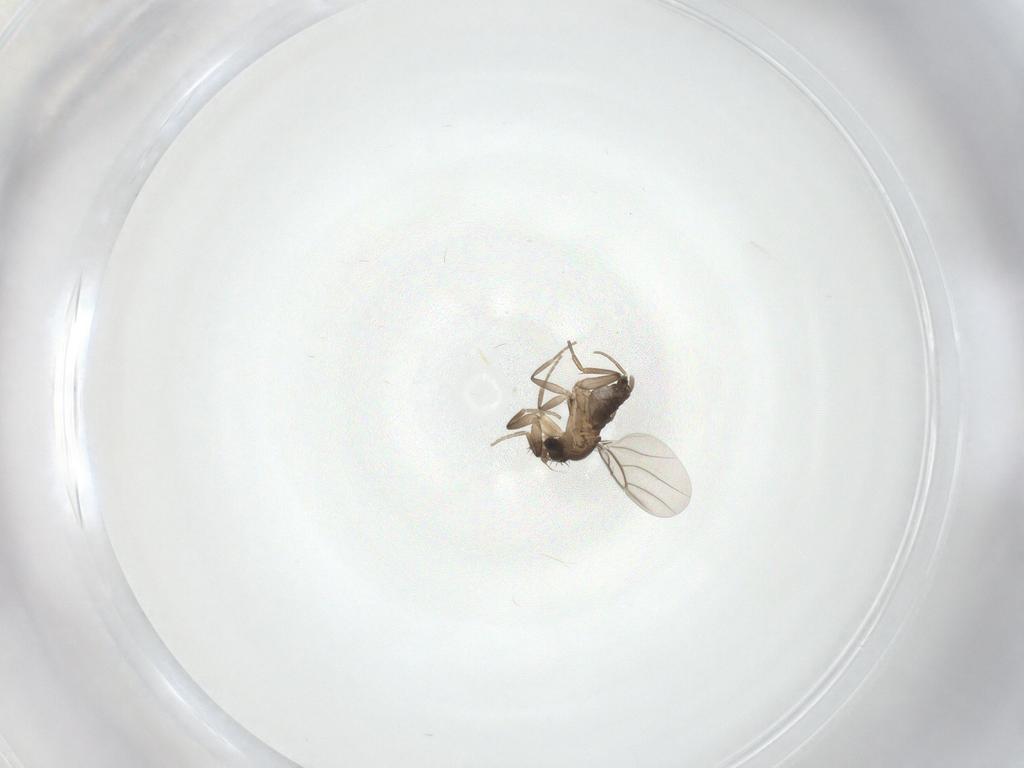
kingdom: Animalia
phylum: Arthropoda
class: Insecta
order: Diptera
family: Phoridae
